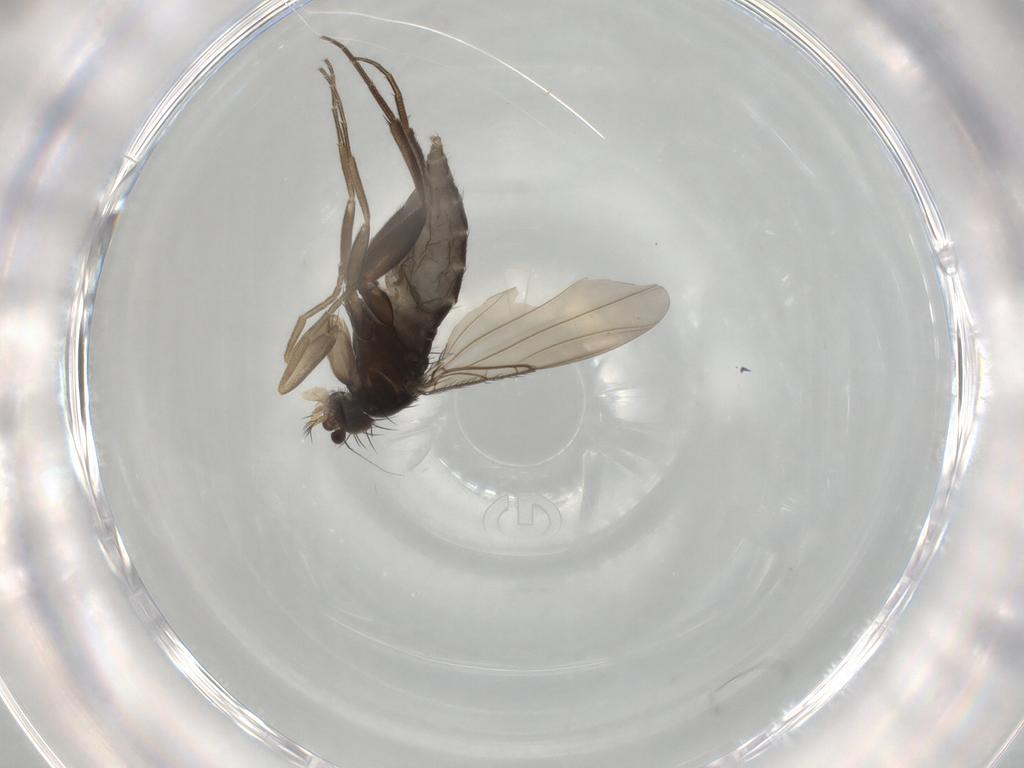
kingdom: Animalia
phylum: Arthropoda
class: Insecta
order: Diptera
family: Phoridae
